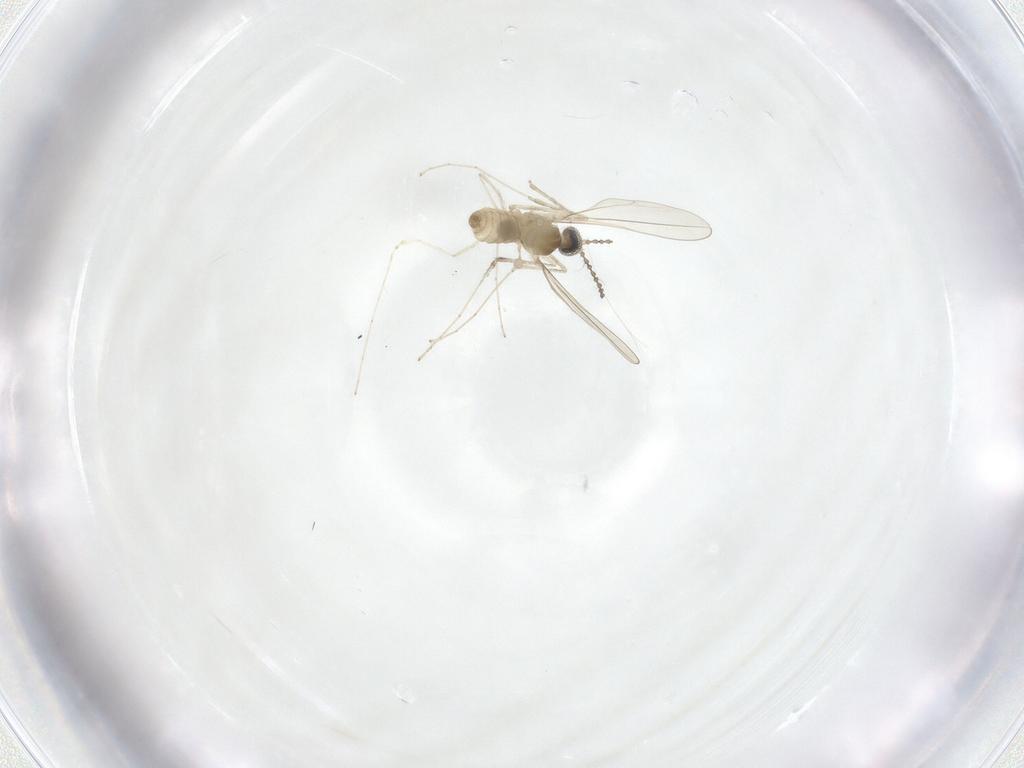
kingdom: Animalia
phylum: Arthropoda
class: Insecta
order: Diptera
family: Cecidomyiidae
